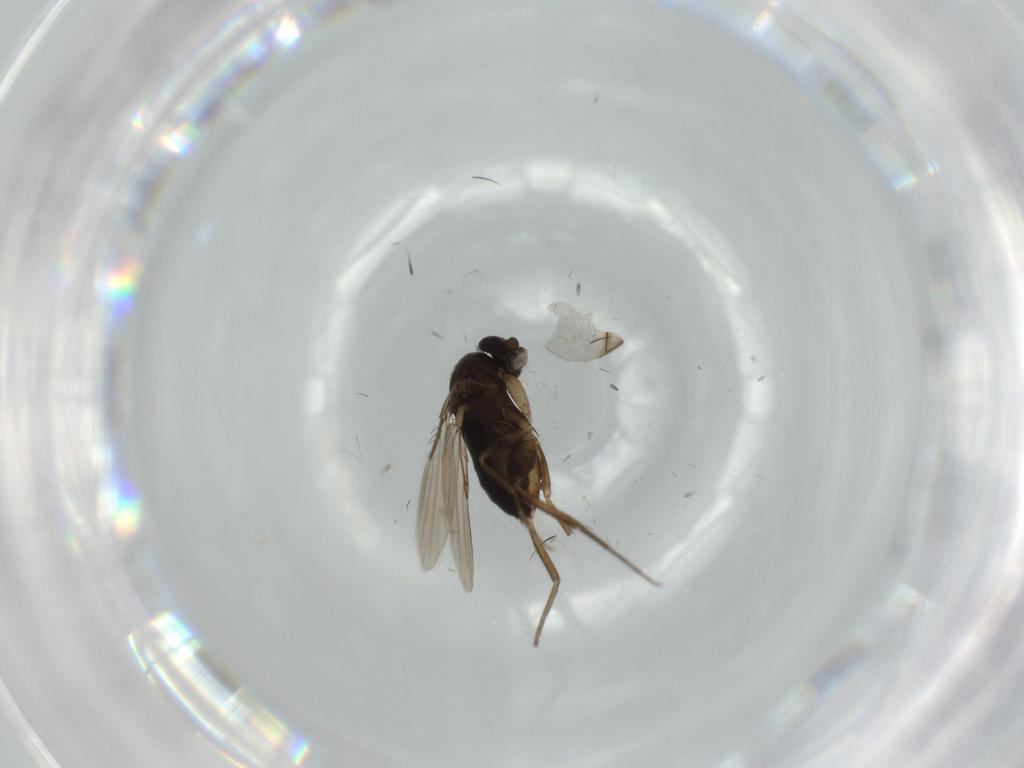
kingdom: Animalia
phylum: Arthropoda
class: Insecta
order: Diptera
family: Phoridae
